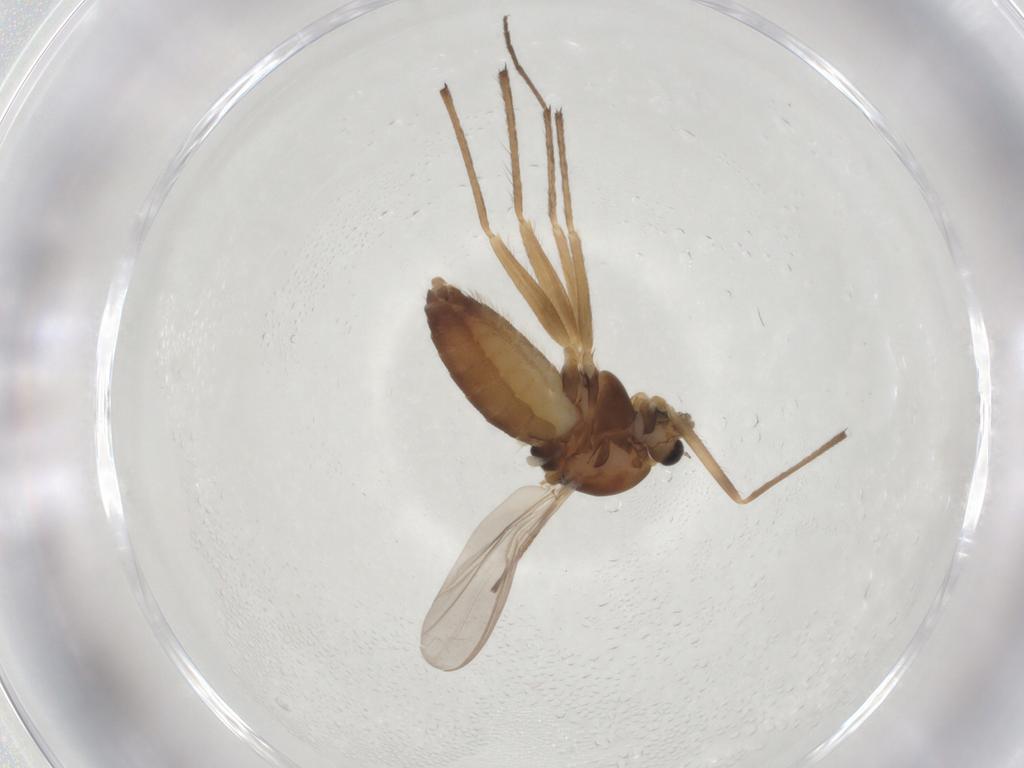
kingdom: Animalia
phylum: Arthropoda
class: Insecta
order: Diptera
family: Chironomidae
